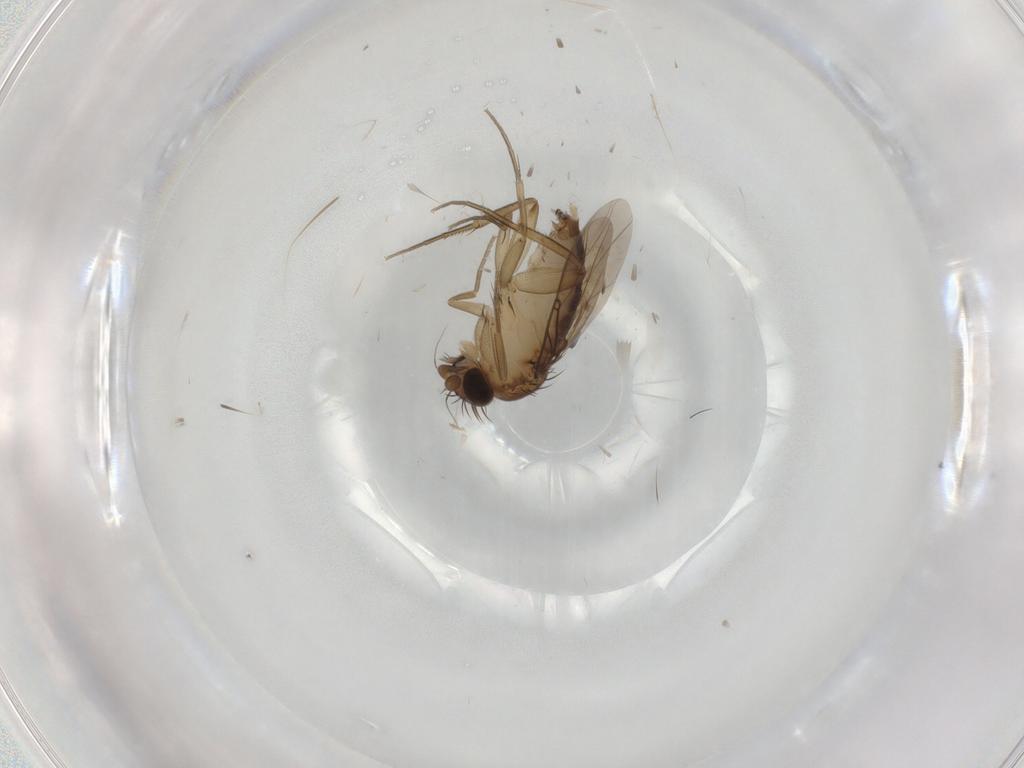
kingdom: Animalia
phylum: Arthropoda
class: Insecta
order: Diptera
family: Phoridae
